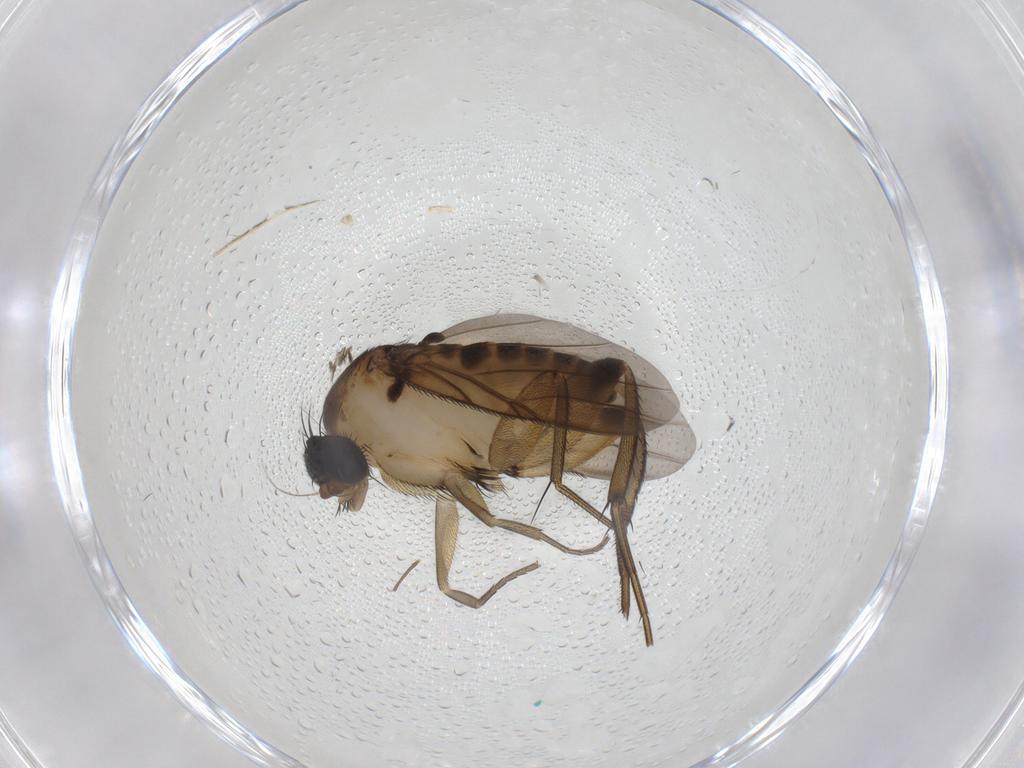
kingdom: Animalia
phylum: Arthropoda
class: Insecta
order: Diptera
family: Phoridae
